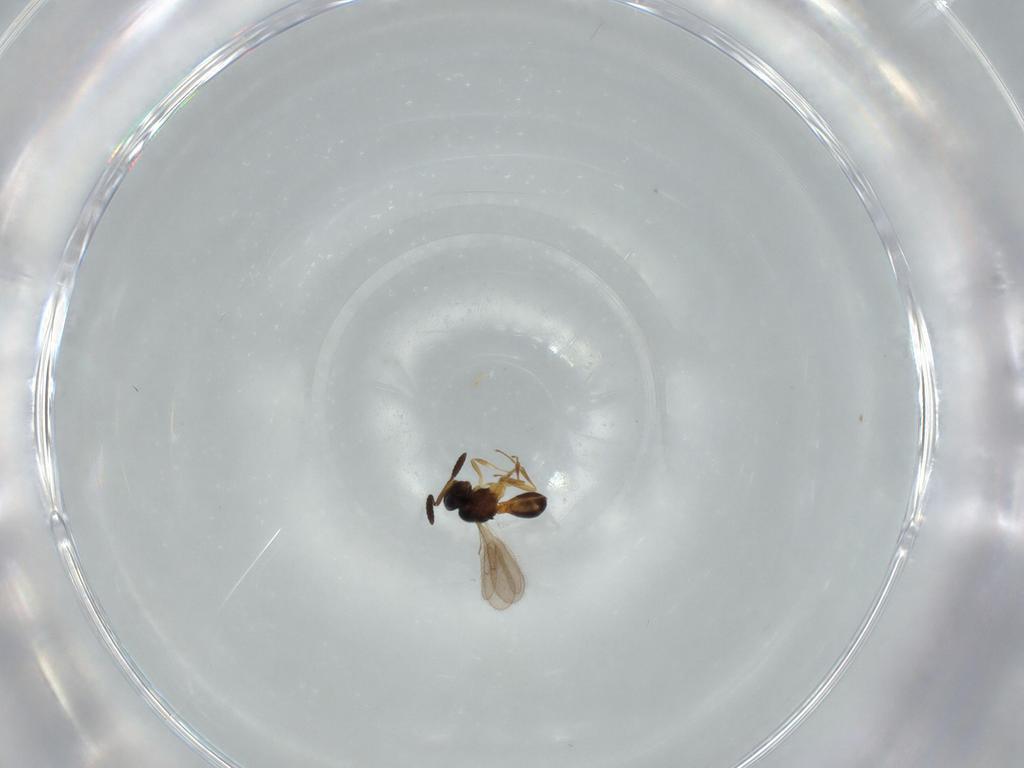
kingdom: Animalia
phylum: Arthropoda
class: Insecta
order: Hymenoptera
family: Scelionidae
